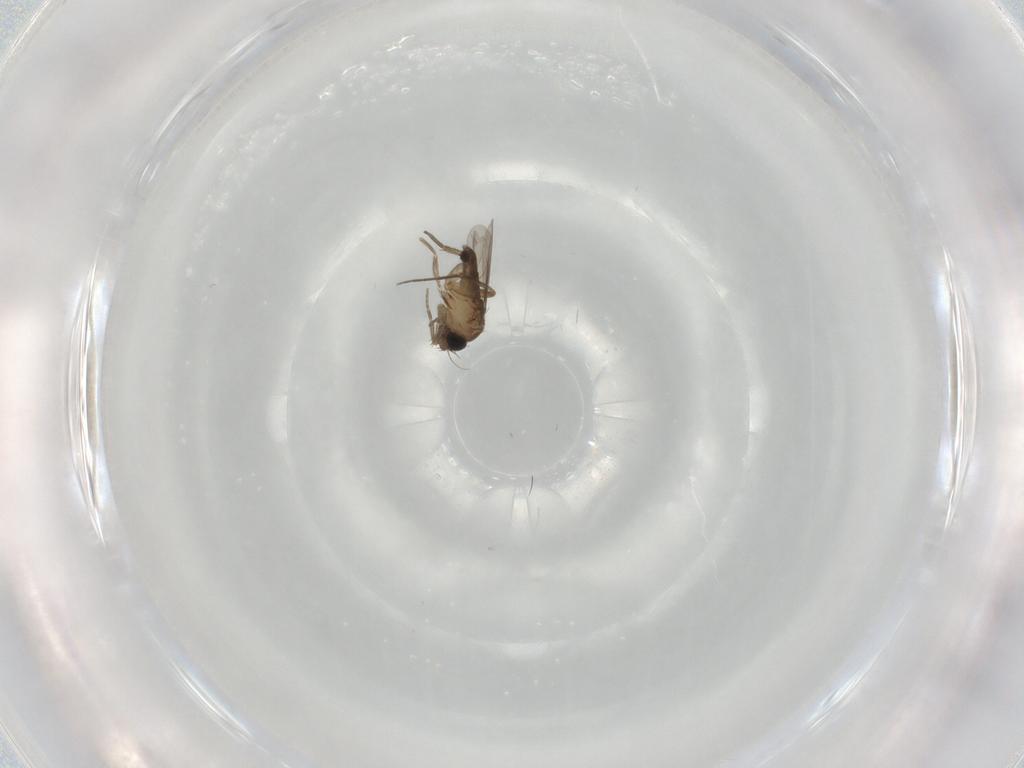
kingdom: Animalia
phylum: Arthropoda
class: Insecta
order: Diptera
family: Phoridae
